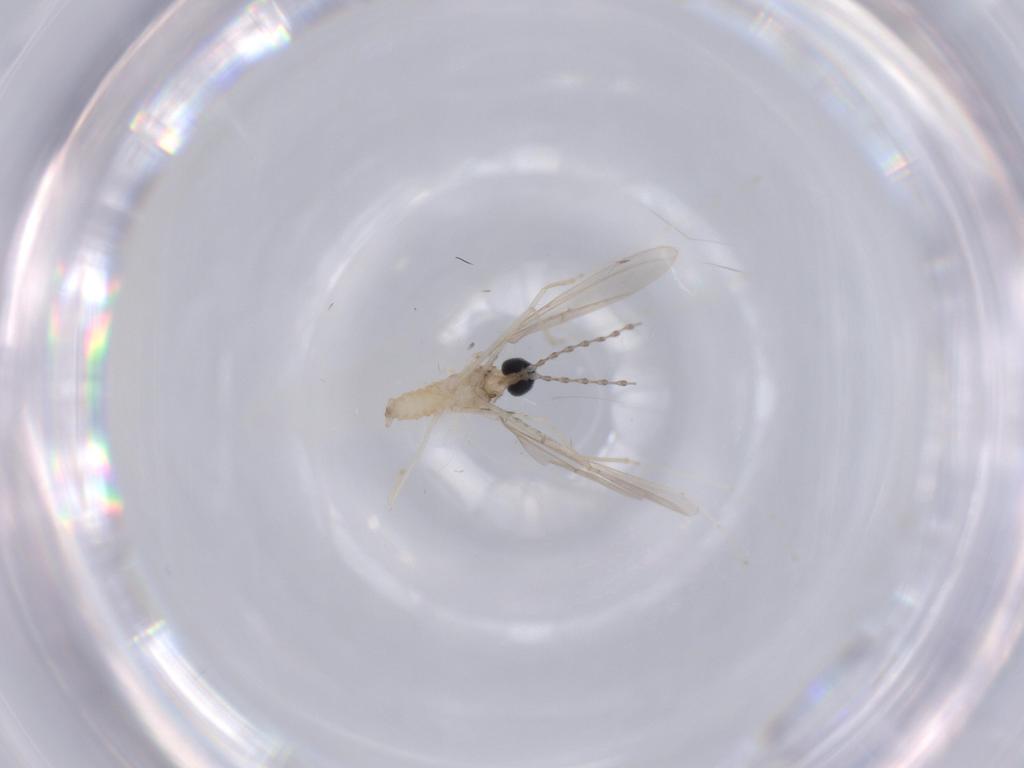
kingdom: Animalia
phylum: Arthropoda
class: Insecta
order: Diptera
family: Cecidomyiidae
